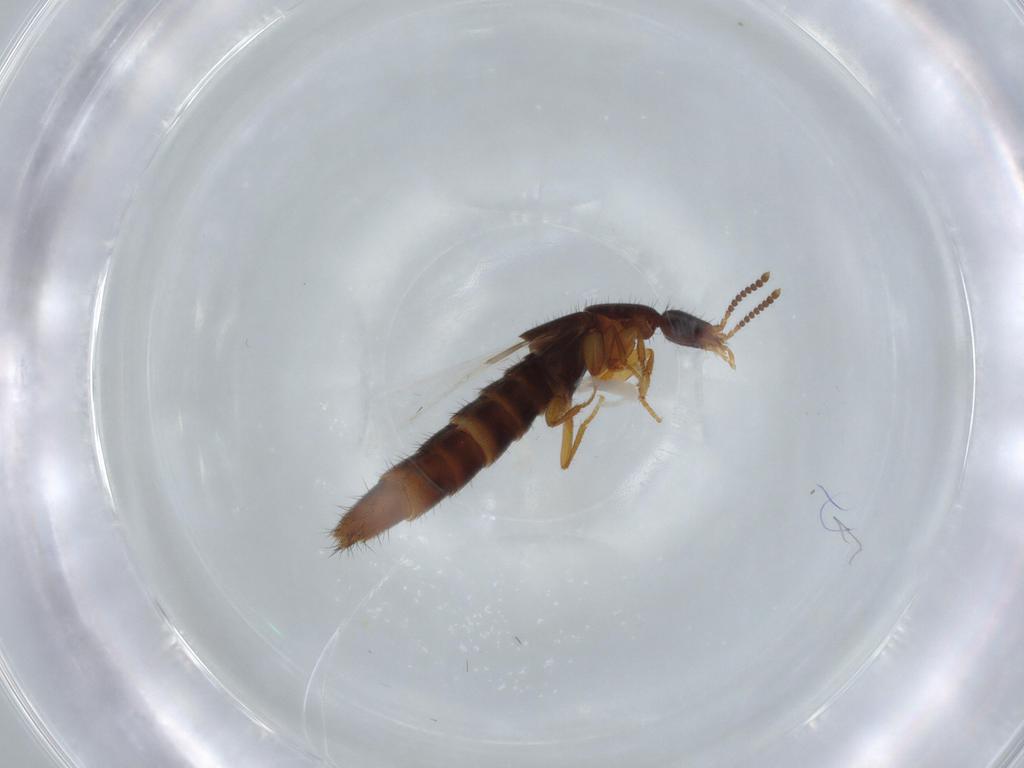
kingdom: Animalia
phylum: Arthropoda
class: Insecta
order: Coleoptera
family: Staphylinidae
